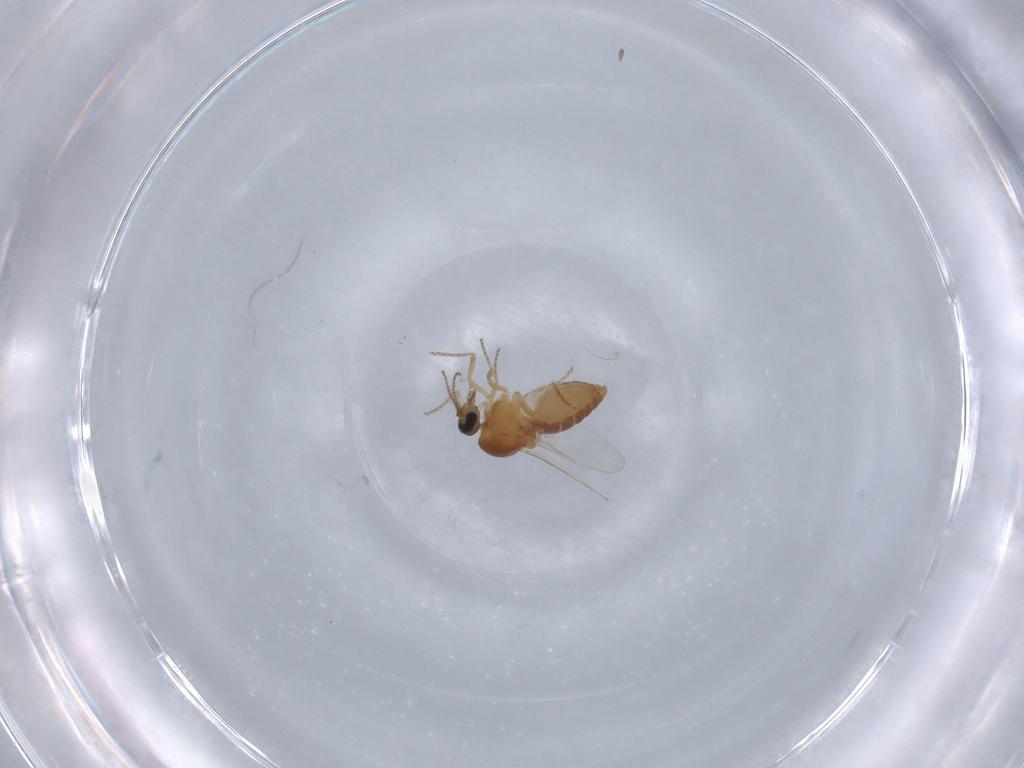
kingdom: Animalia
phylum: Arthropoda
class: Insecta
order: Diptera
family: Ceratopogonidae
